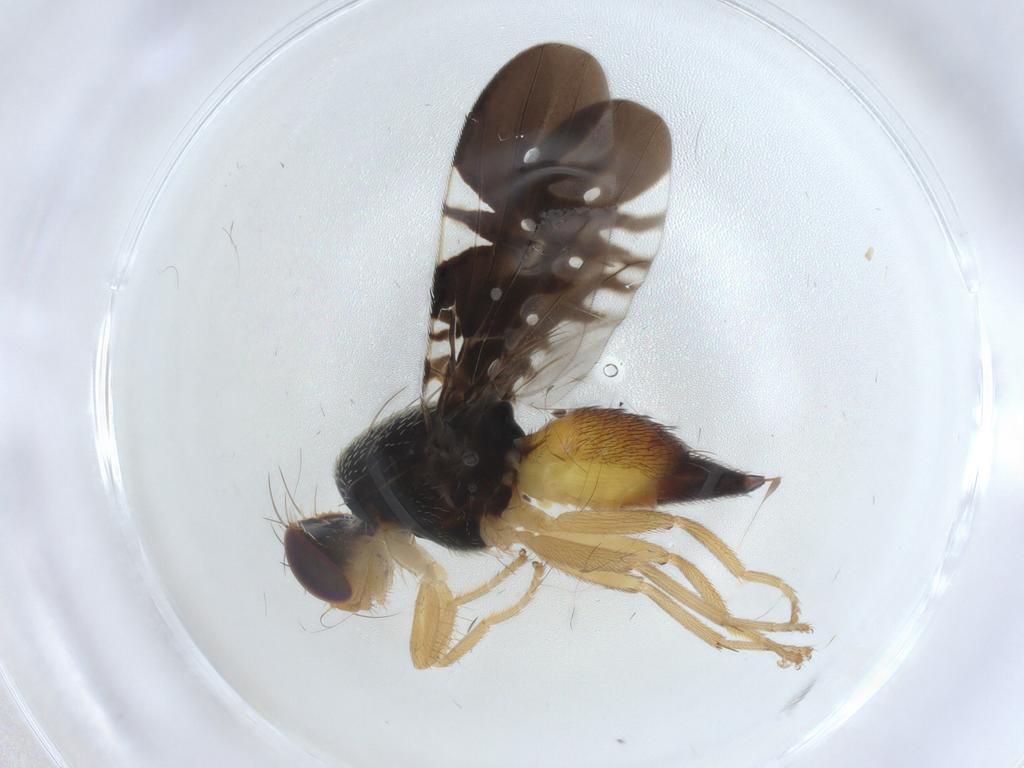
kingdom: Animalia
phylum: Arthropoda
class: Insecta
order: Diptera
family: Tephritidae
